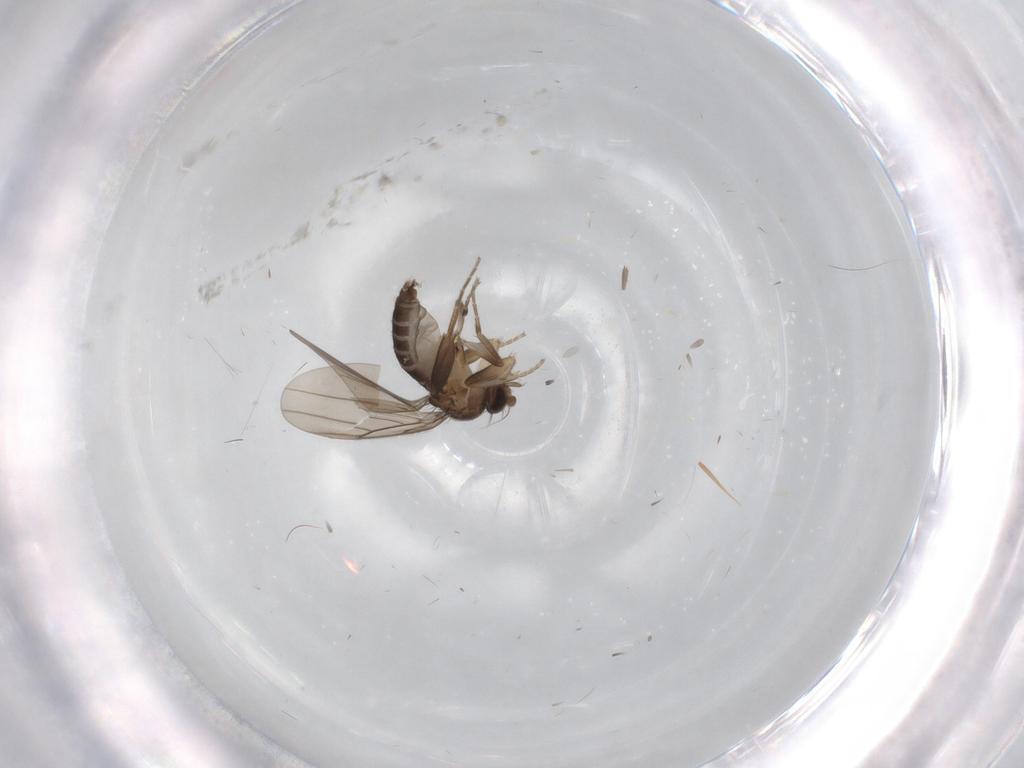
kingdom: Animalia
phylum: Arthropoda
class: Insecta
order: Diptera
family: Phoridae
